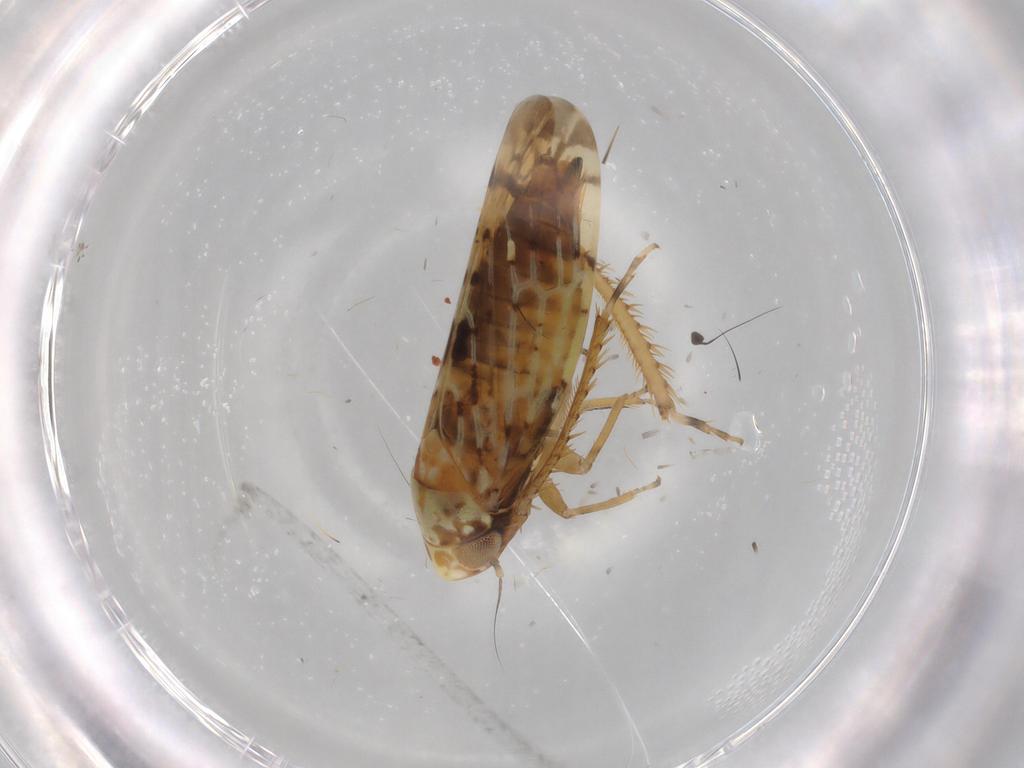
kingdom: Animalia
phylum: Arthropoda
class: Insecta
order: Hemiptera
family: Cicadellidae
